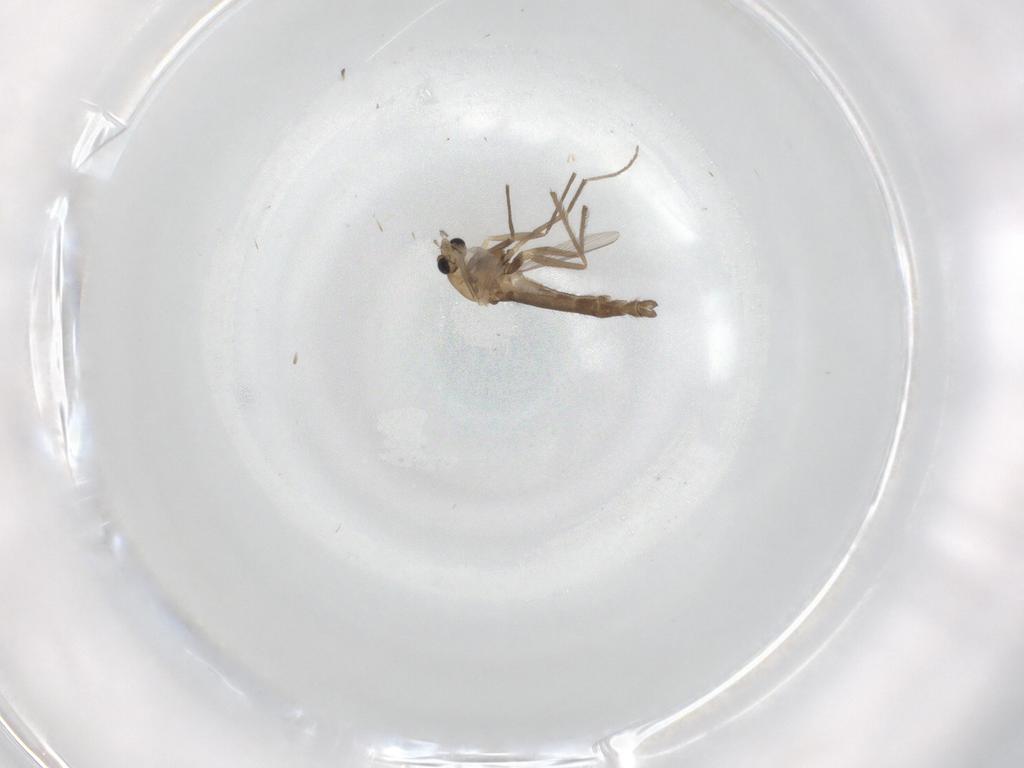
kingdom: Animalia
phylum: Arthropoda
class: Insecta
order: Diptera
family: Chironomidae
